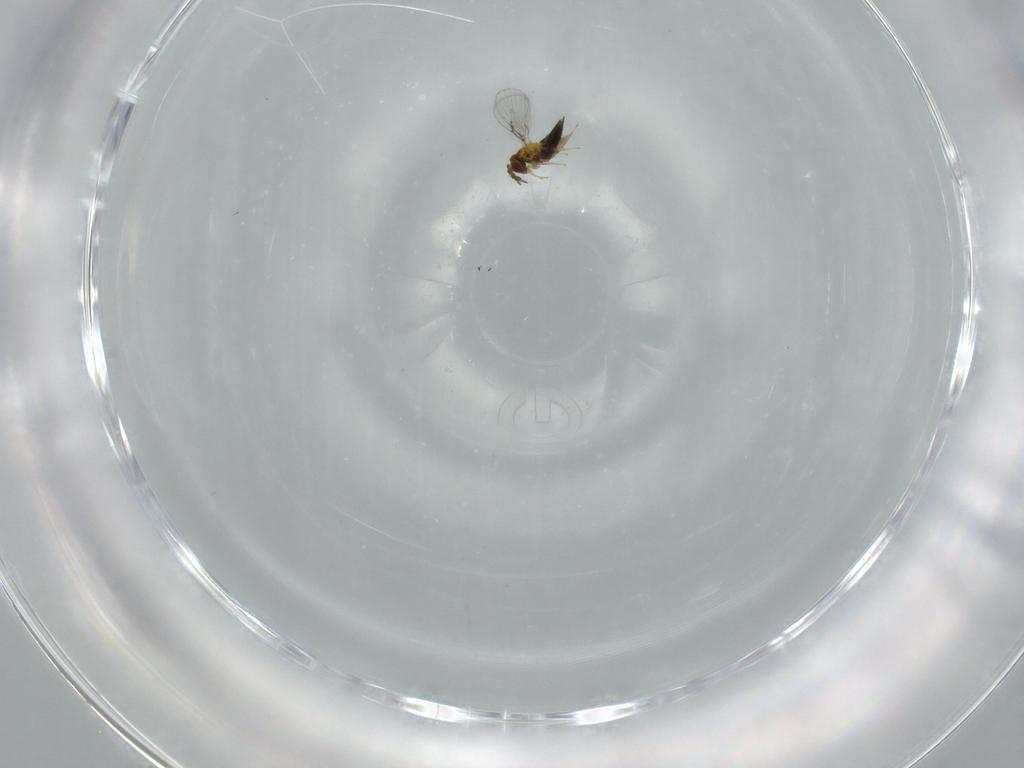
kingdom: Animalia
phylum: Arthropoda
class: Insecta
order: Hymenoptera
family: Trichogrammatidae
